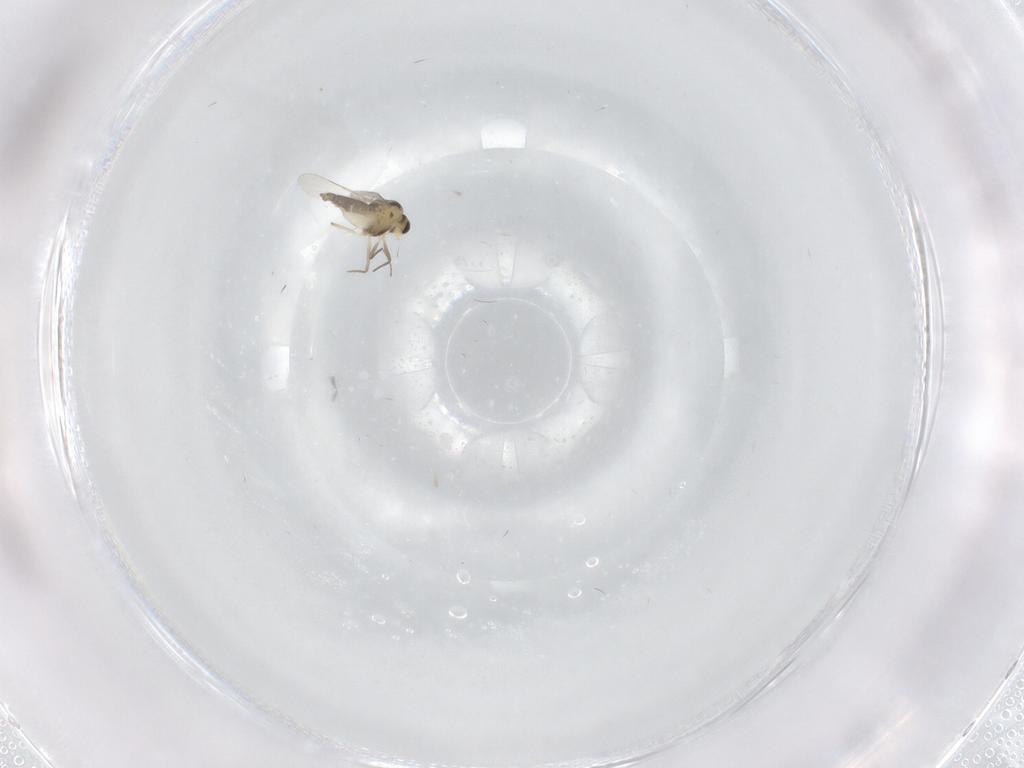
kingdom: Animalia
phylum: Arthropoda
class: Insecta
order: Diptera
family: Chironomidae
